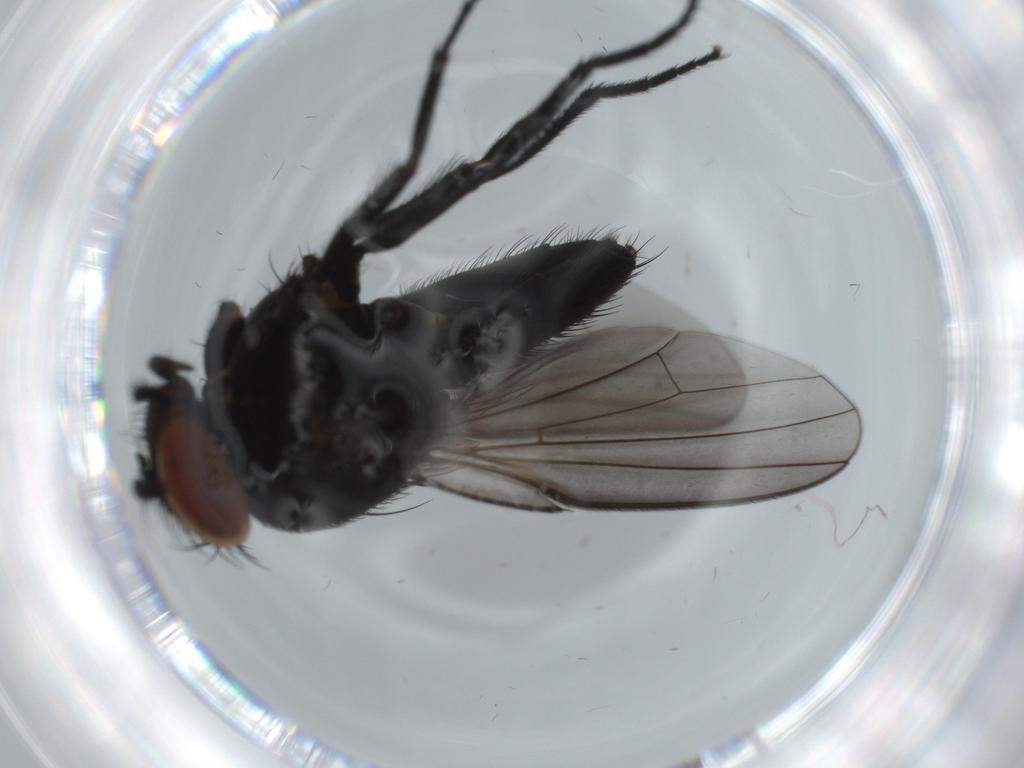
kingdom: Animalia
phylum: Arthropoda
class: Insecta
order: Diptera
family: Milichiidae
